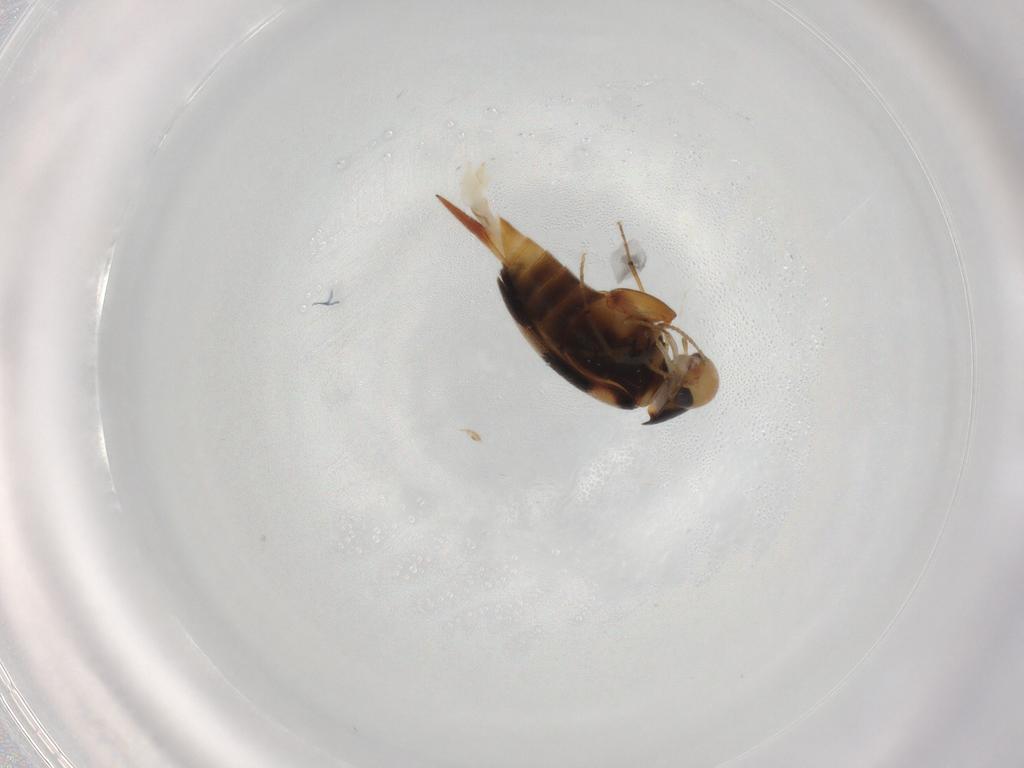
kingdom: Animalia
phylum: Arthropoda
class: Insecta
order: Coleoptera
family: Mordellidae
